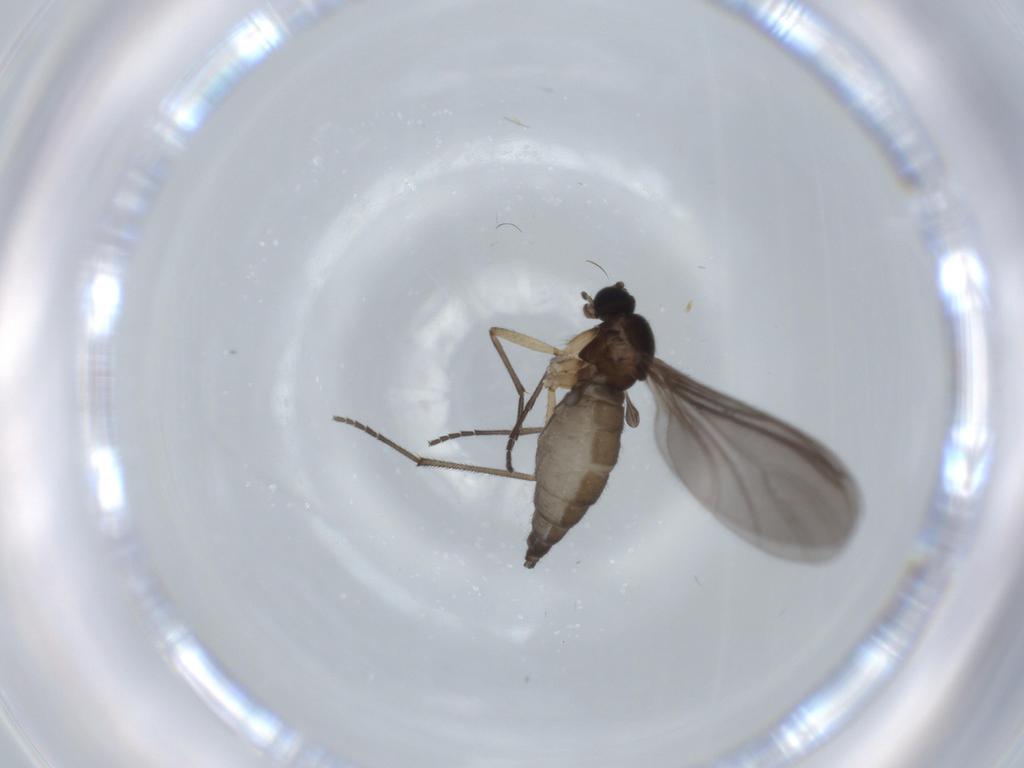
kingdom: Animalia
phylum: Arthropoda
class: Insecta
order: Diptera
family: Sciaridae
